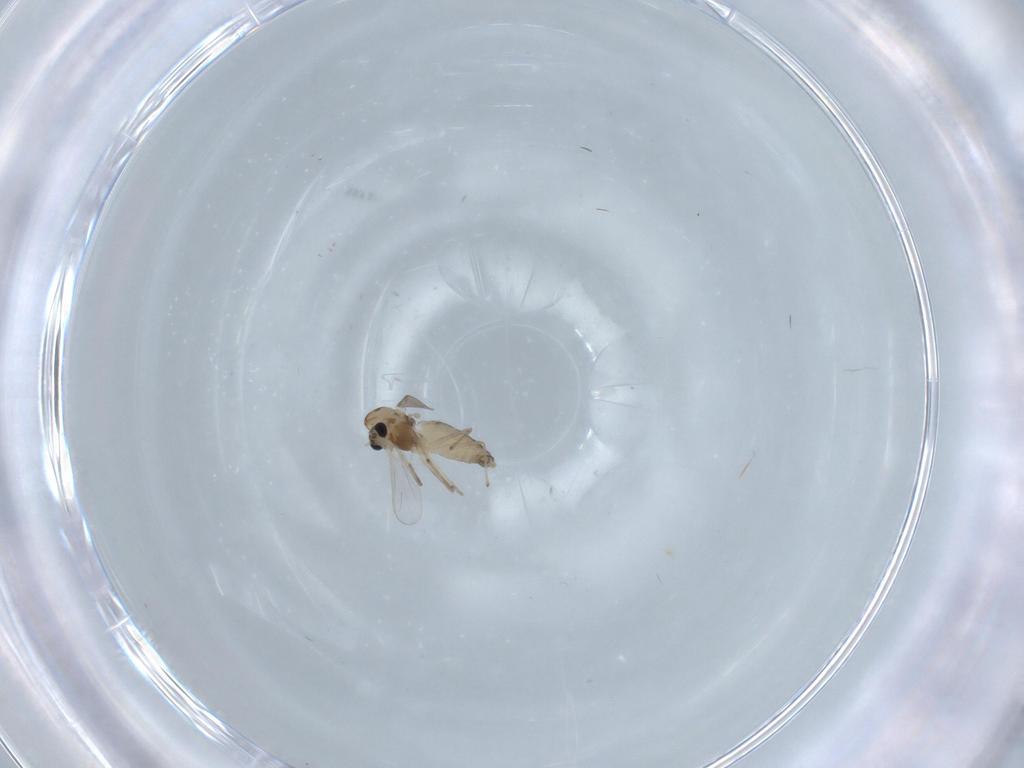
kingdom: Animalia
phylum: Arthropoda
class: Insecta
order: Diptera
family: Chironomidae
